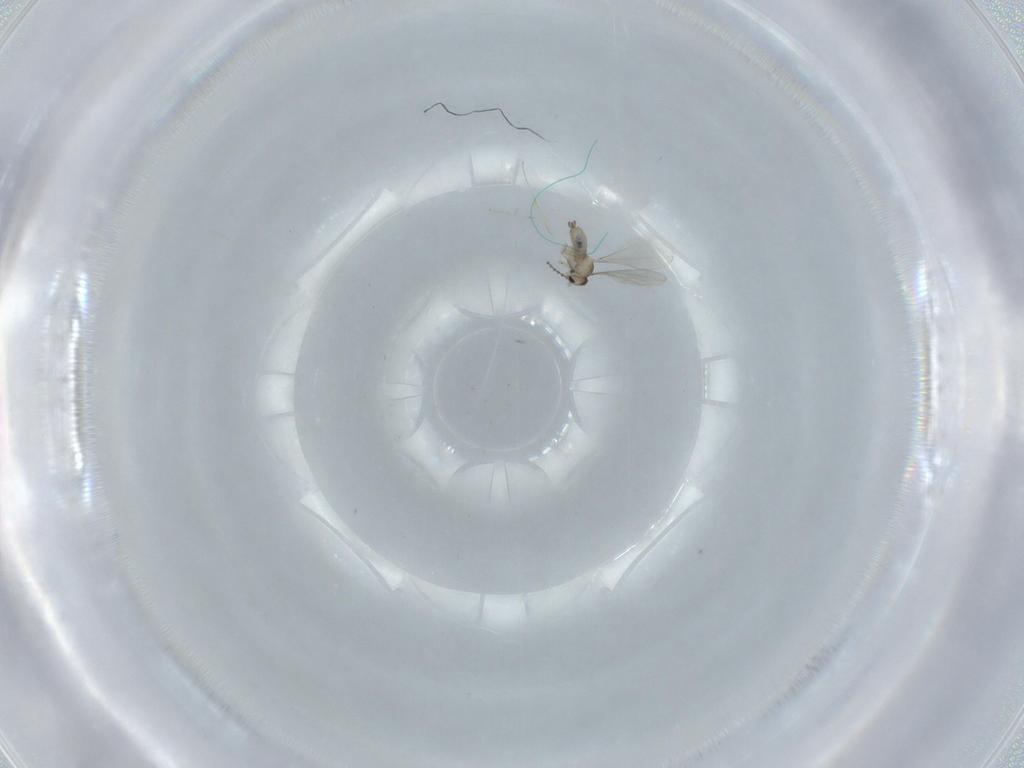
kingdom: Animalia
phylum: Arthropoda
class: Insecta
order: Diptera
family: Cecidomyiidae
